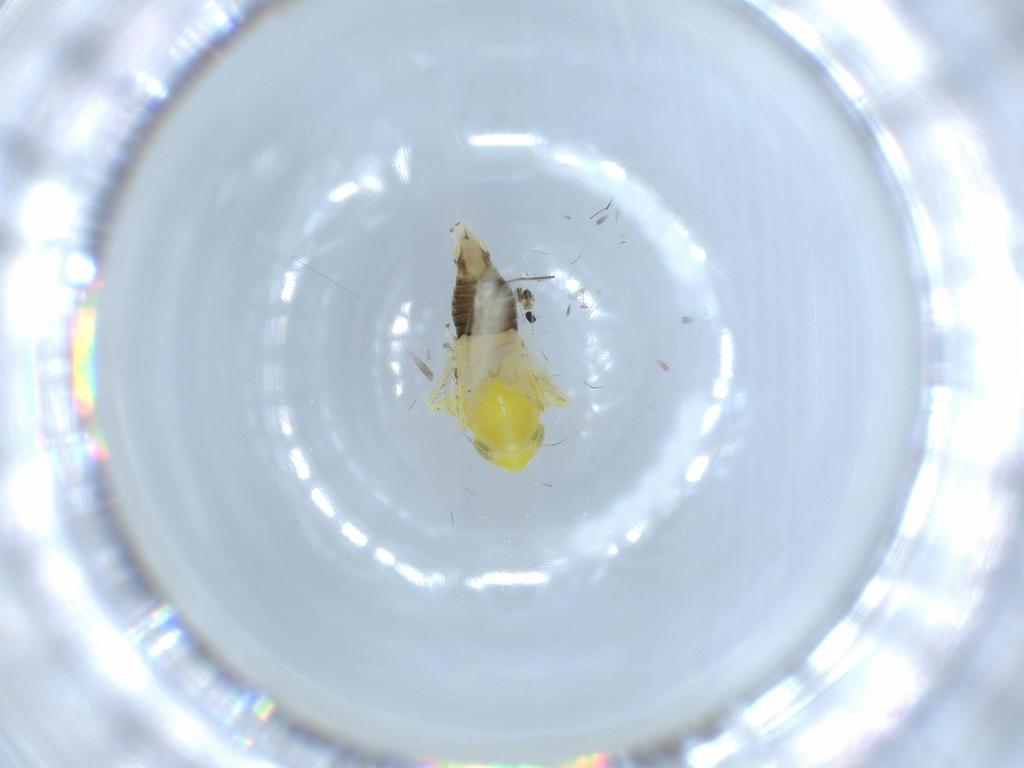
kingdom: Animalia
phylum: Arthropoda
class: Insecta
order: Hemiptera
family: Cicadellidae
